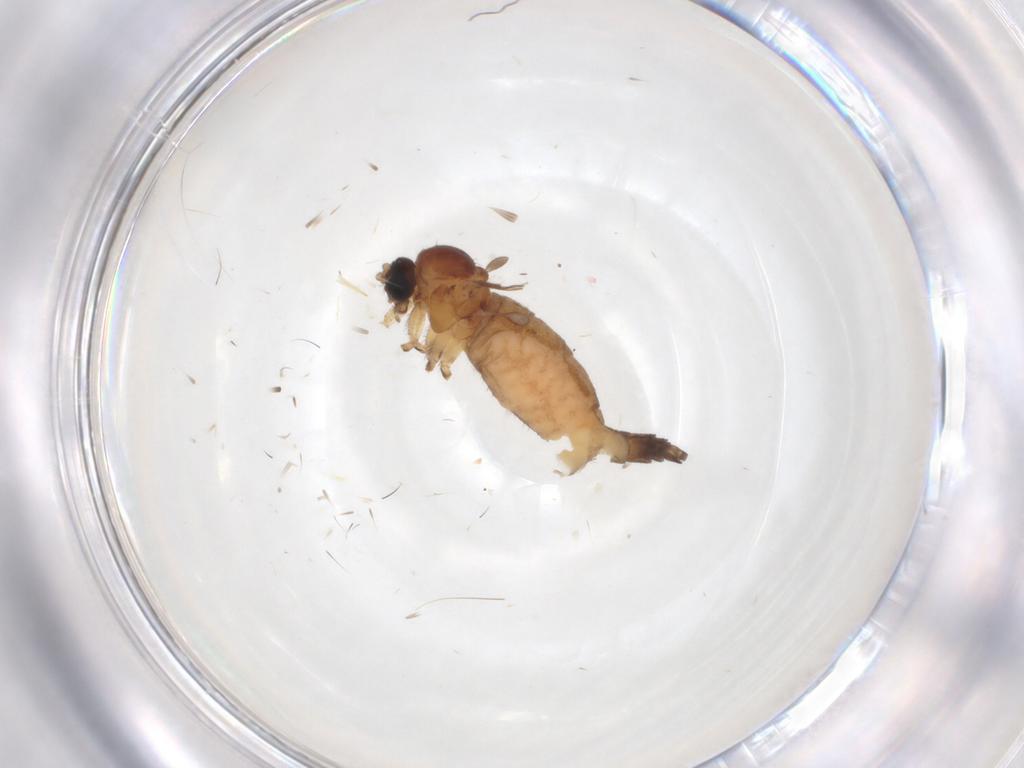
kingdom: Animalia
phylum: Arthropoda
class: Insecta
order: Diptera
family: Sciaridae
